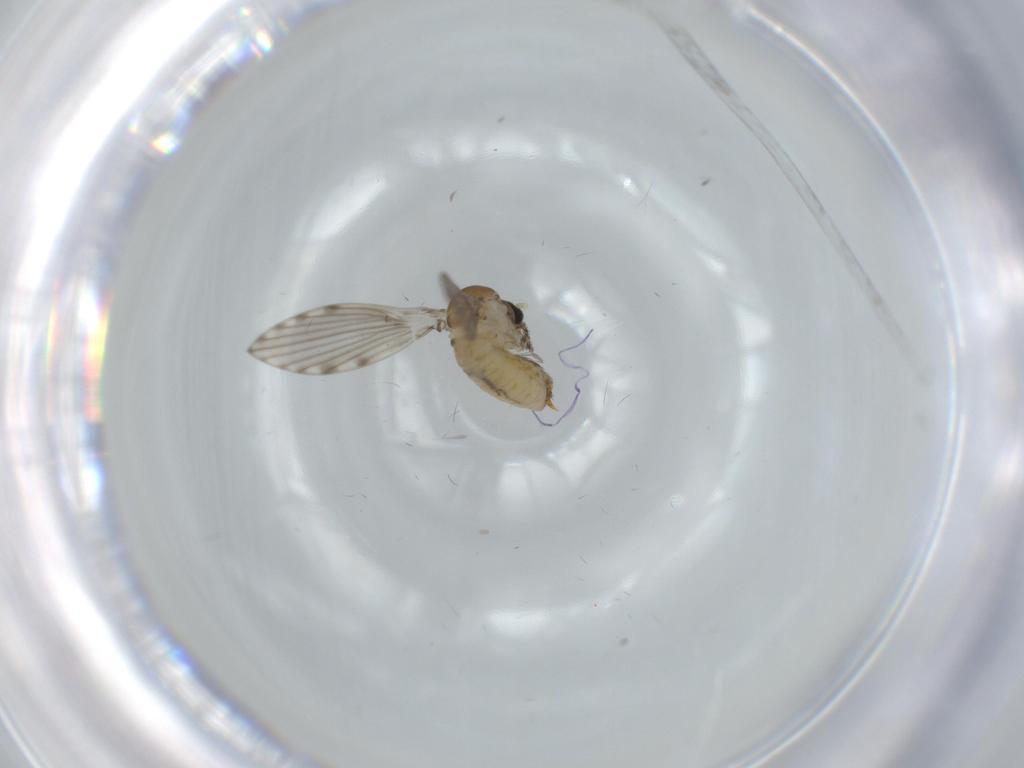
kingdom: Animalia
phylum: Arthropoda
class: Insecta
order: Diptera
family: Psychodidae
